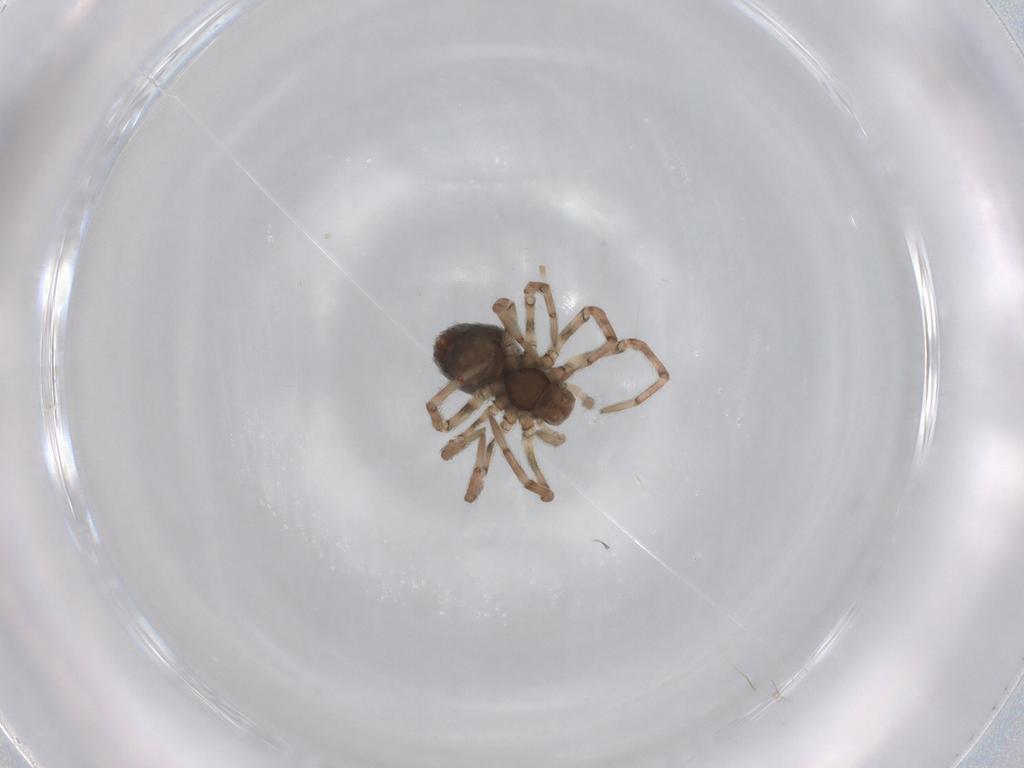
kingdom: Animalia
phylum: Arthropoda
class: Arachnida
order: Araneae
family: Dictynidae
